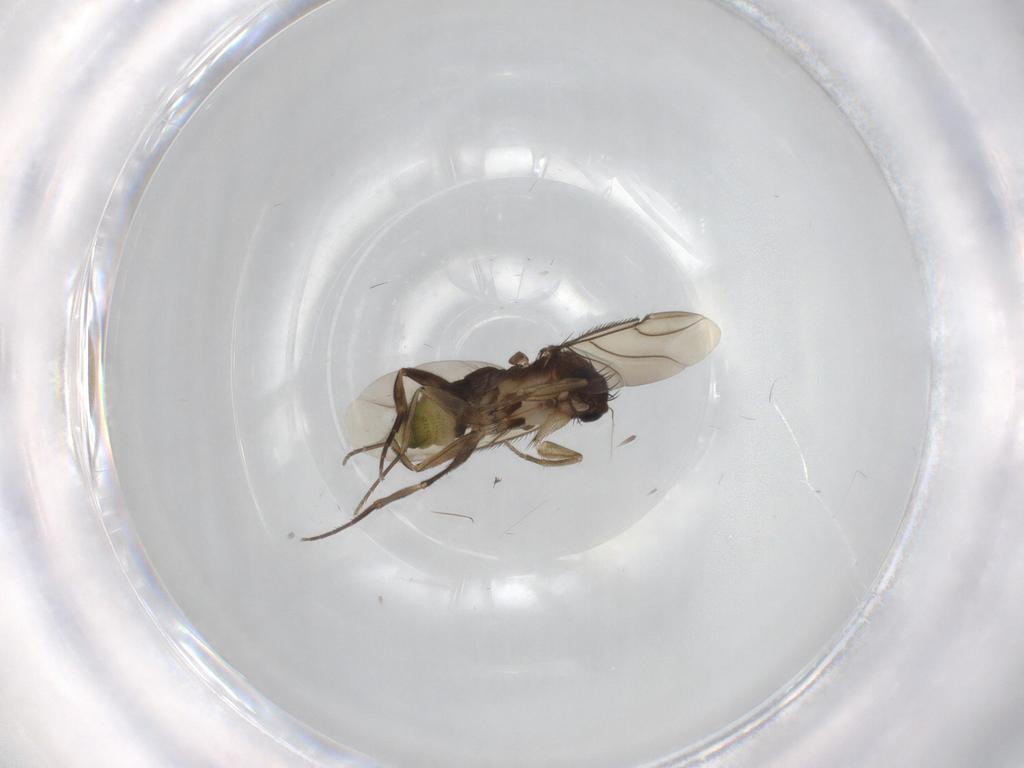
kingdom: Animalia
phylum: Arthropoda
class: Insecta
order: Diptera
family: Phoridae
